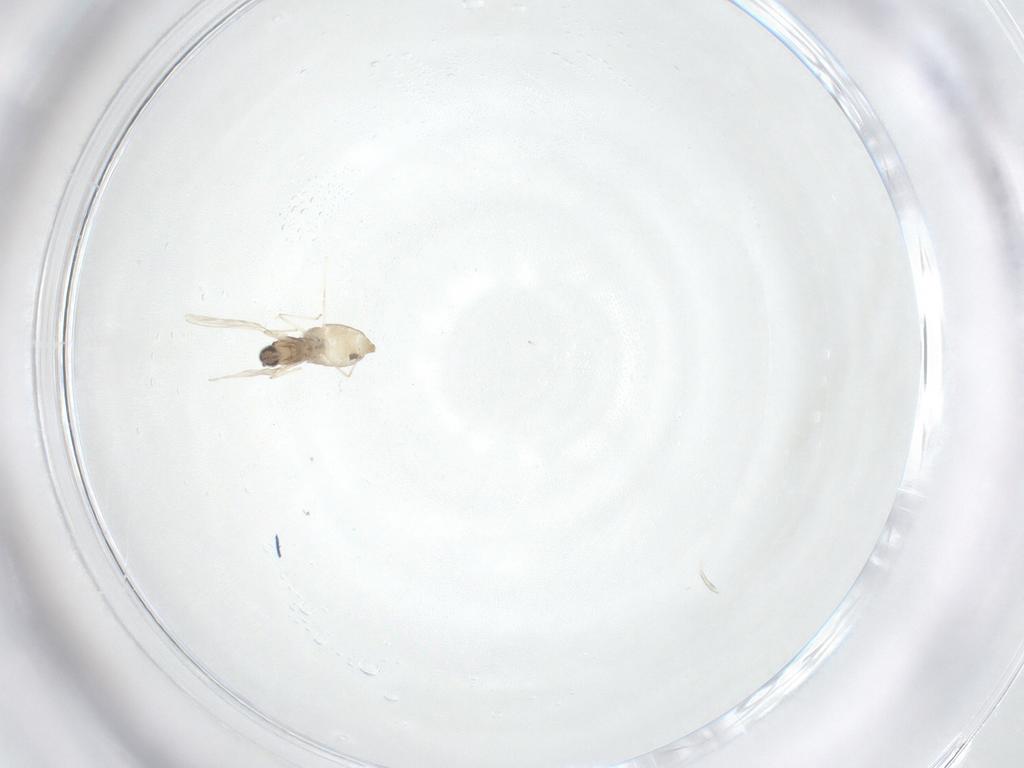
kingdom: Animalia
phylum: Arthropoda
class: Insecta
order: Diptera
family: Cecidomyiidae
